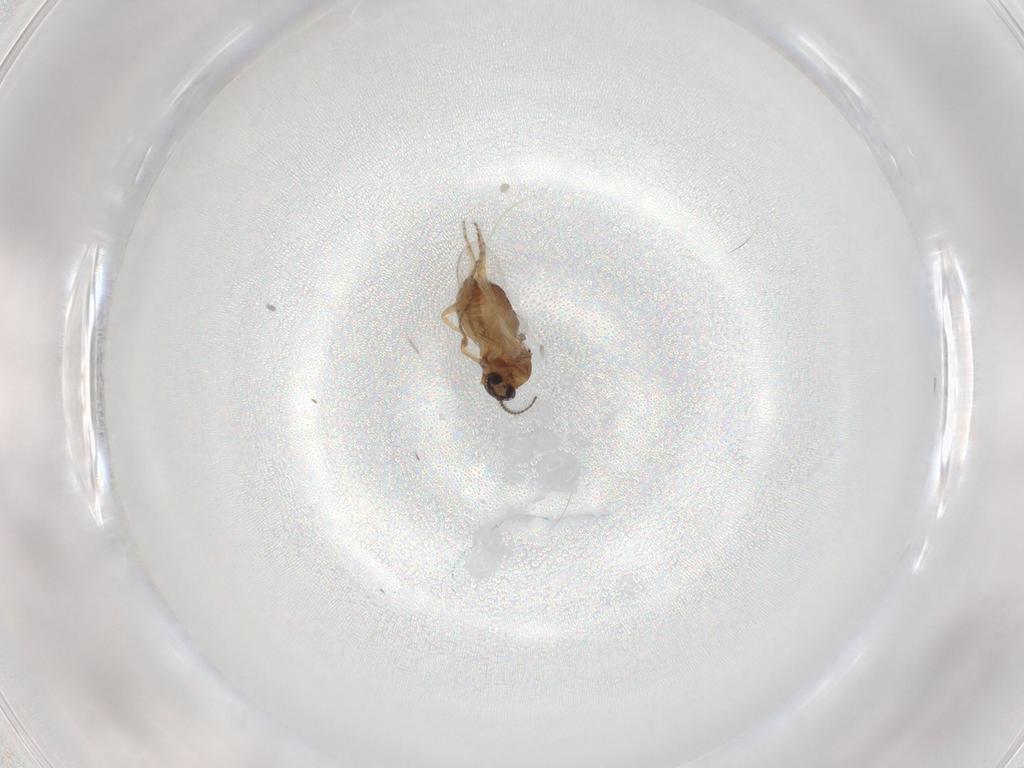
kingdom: Animalia
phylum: Arthropoda
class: Insecta
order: Diptera
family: Ceratopogonidae
